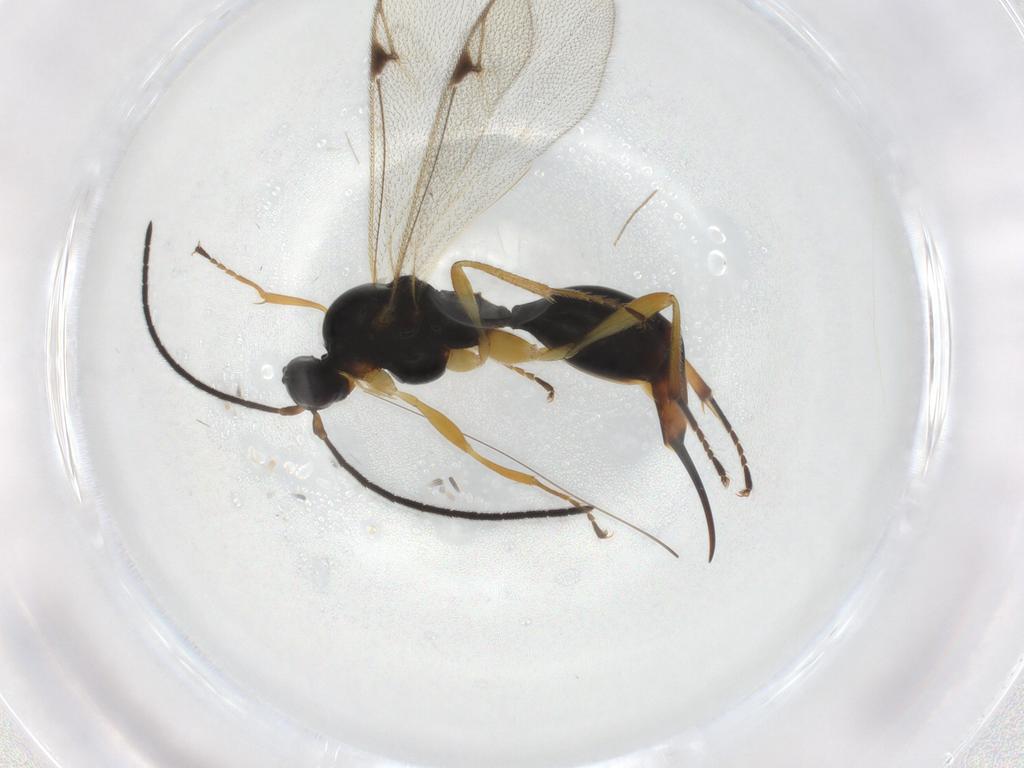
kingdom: Animalia
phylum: Arthropoda
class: Insecta
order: Hymenoptera
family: Proctotrupidae
